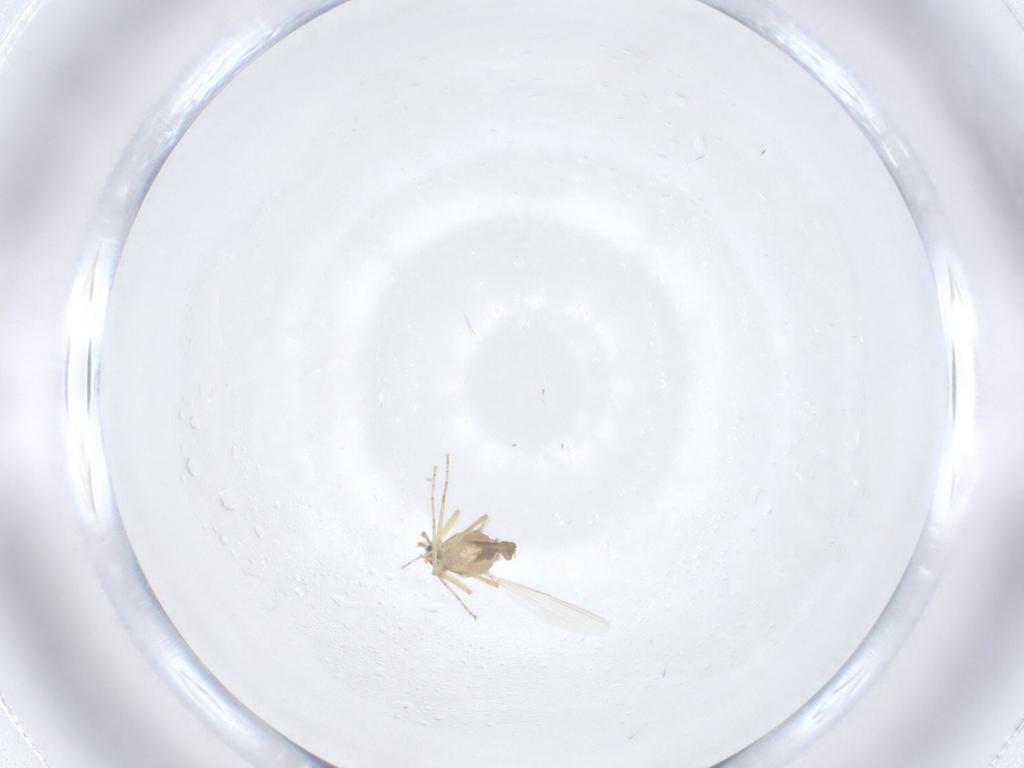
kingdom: Animalia
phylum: Arthropoda
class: Insecta
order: Diptera
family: Ceratopogonidae
